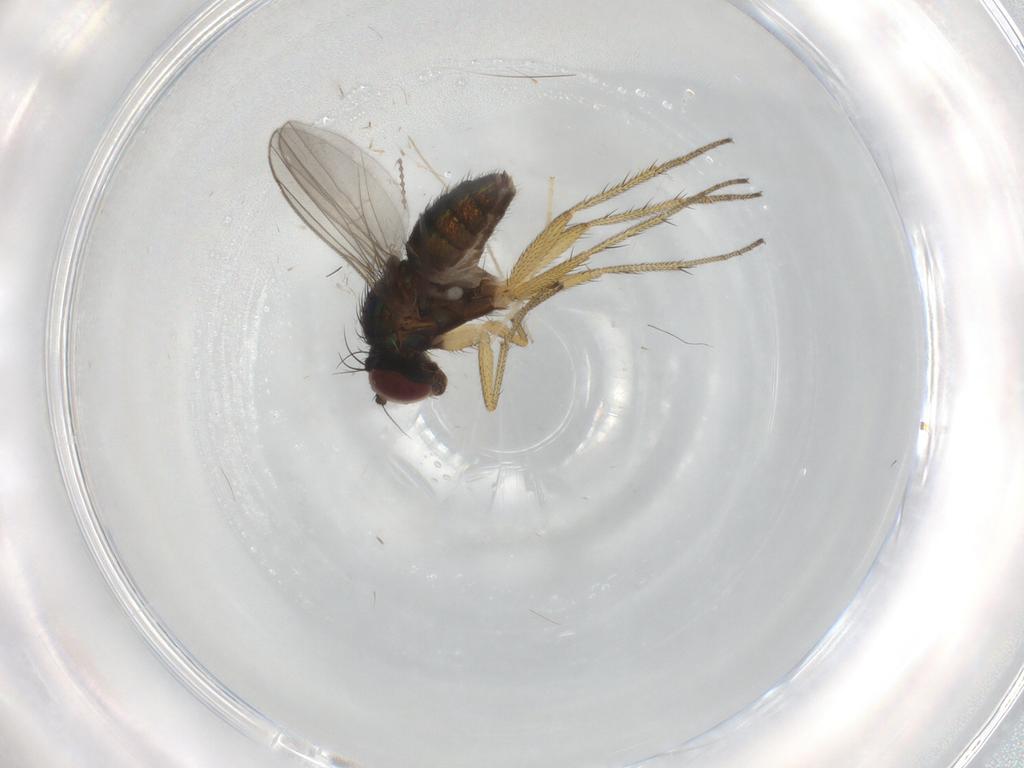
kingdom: Animalia
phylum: Arthropoda
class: Insecta
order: Diptera
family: Chironomidae
